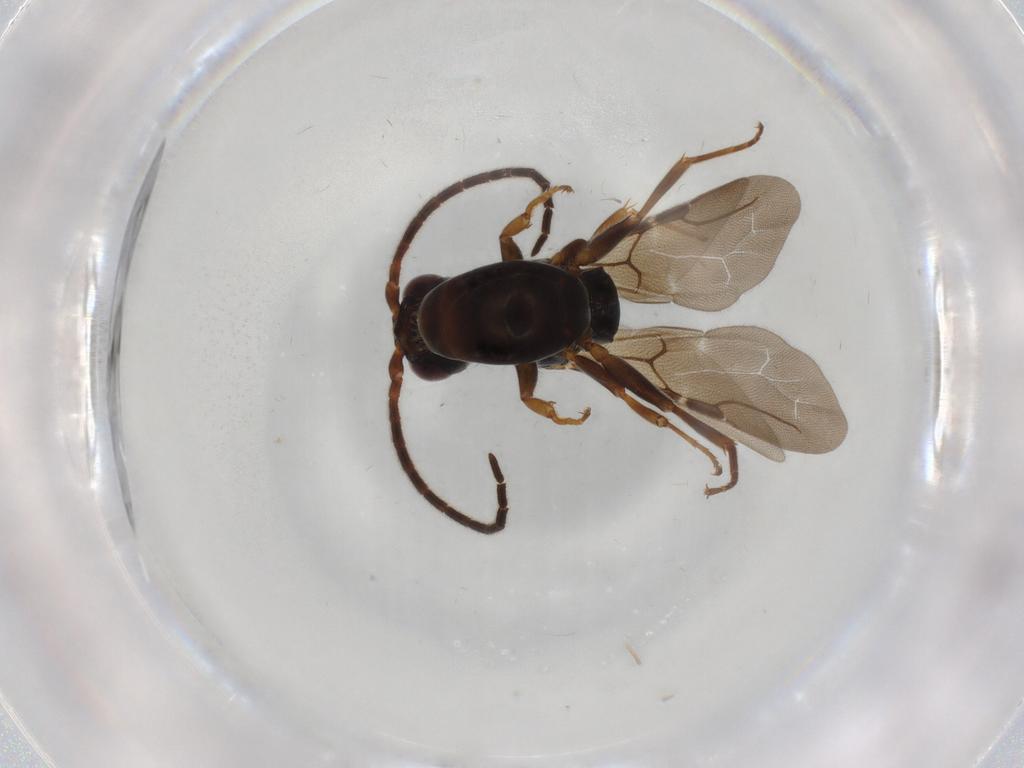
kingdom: Animalia
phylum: Arthropoda
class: Insecta
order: Hymenoptera
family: Bethylidae
